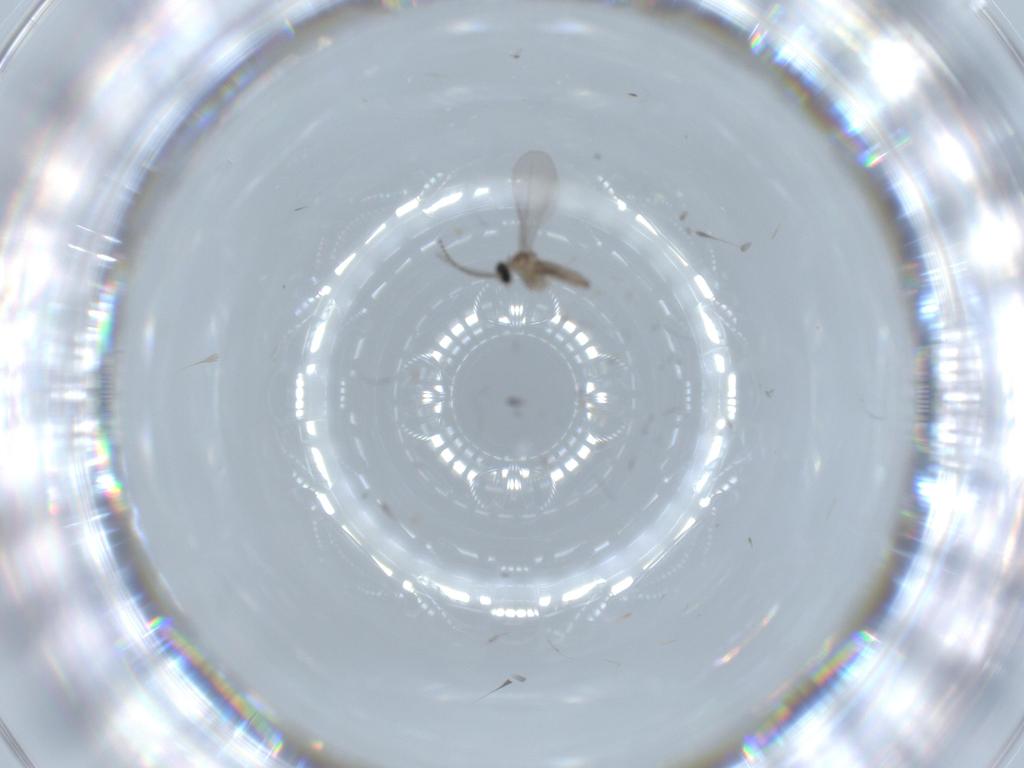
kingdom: Animalia
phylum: Arthropoda
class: Insecta
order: Diptera
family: Cecidomyiidae
